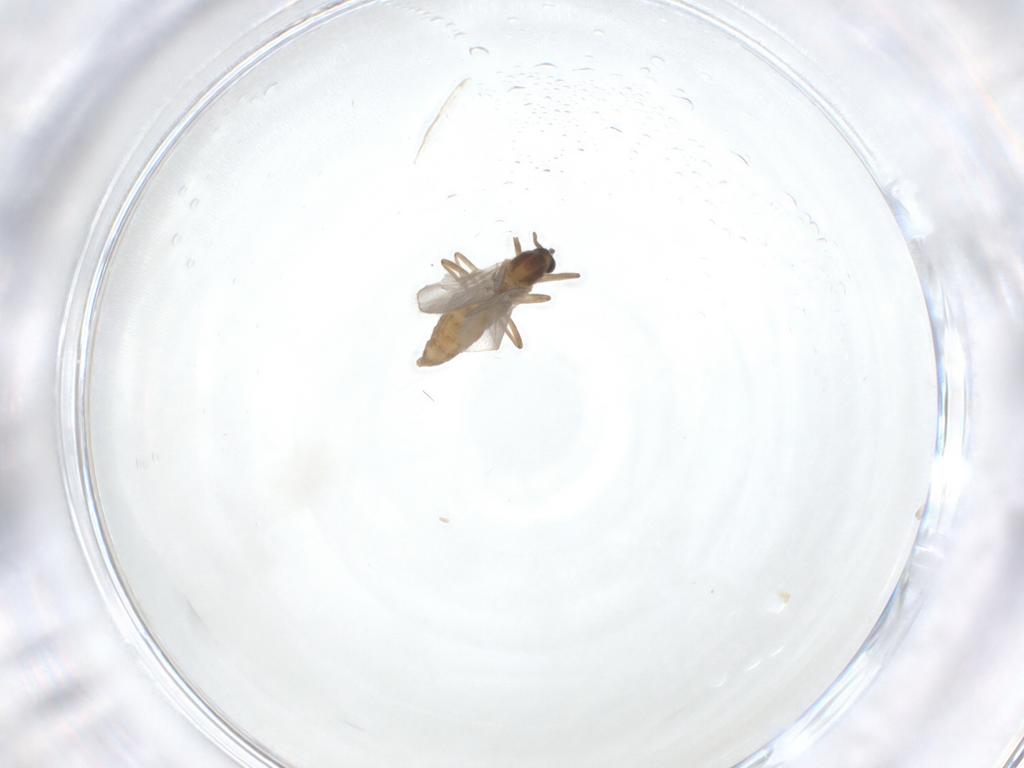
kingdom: Animalia
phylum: Arthropoda
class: Insecta
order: Diptera
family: Cecidomyiidae
